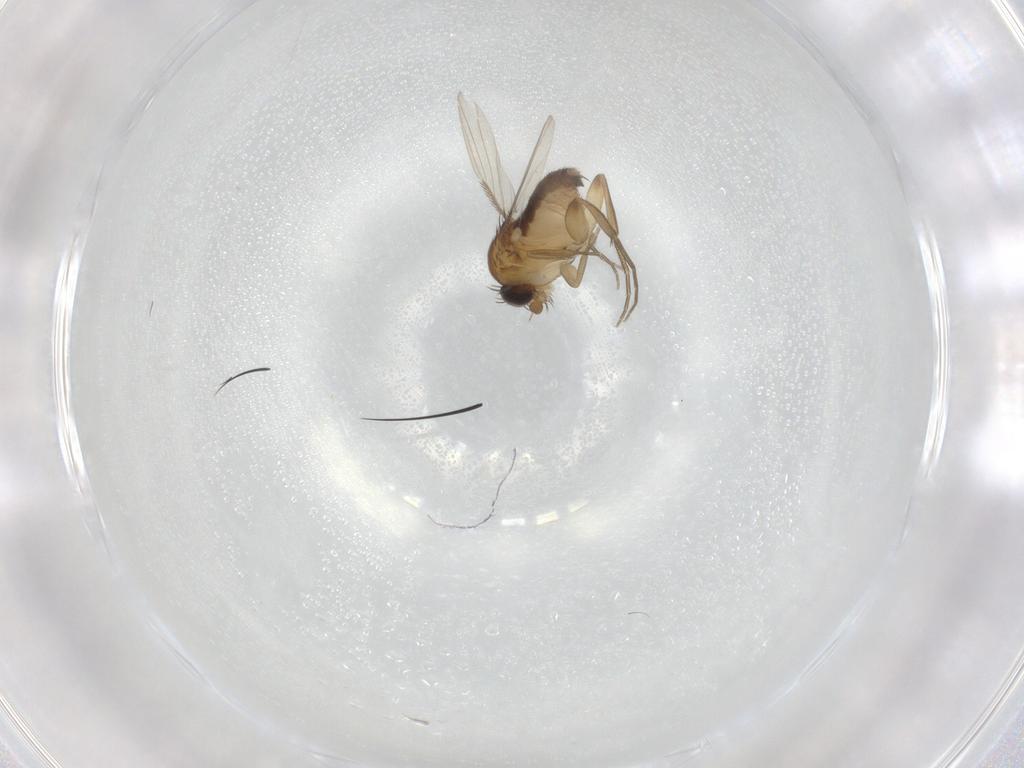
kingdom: Animalia
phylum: Arthropoda
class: Insecta
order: Diptera
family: Phoridae
